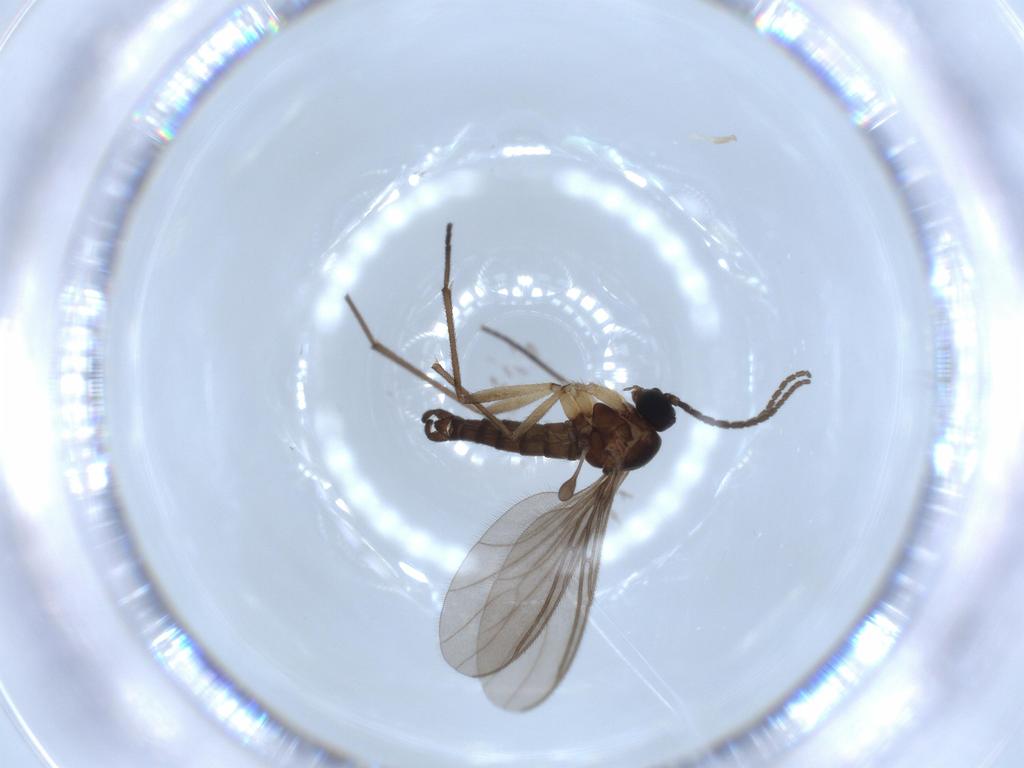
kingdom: Animalia
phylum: Arthropoda
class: Insecta
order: Diptera
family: Sciaridae
